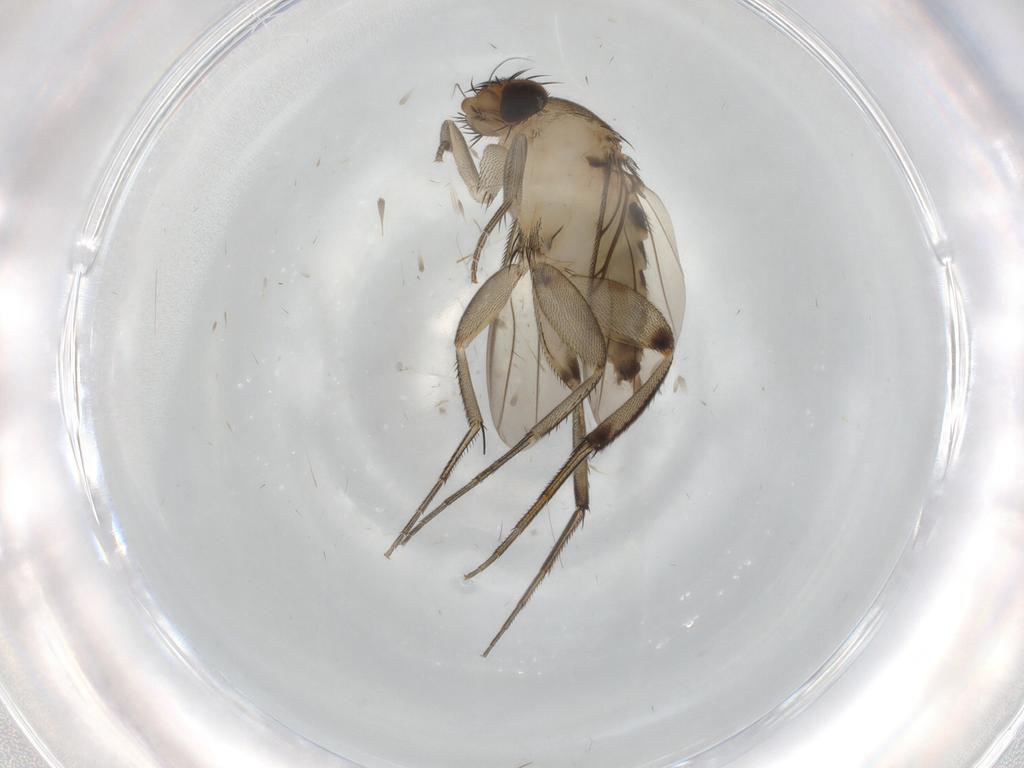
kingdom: Animalia
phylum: Arthropoda
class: Insecta
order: Diptera
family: Phoridae
